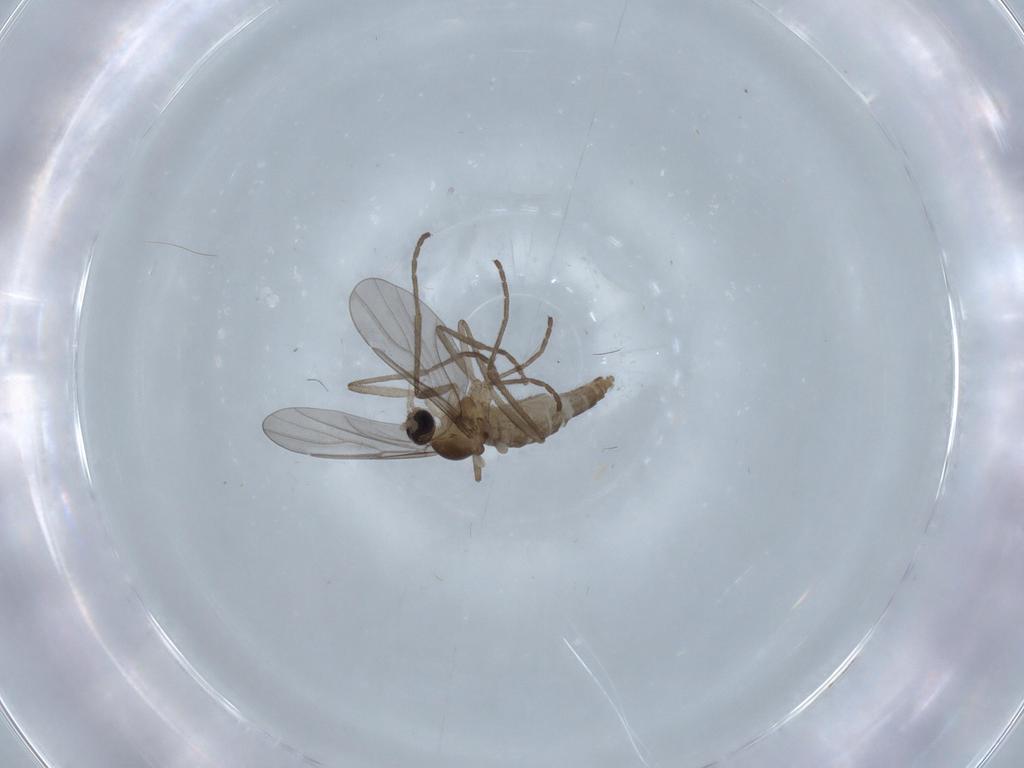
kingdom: Animalia
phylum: Arthropoda
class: Insecta
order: Diptera
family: Cecidomyiidae
